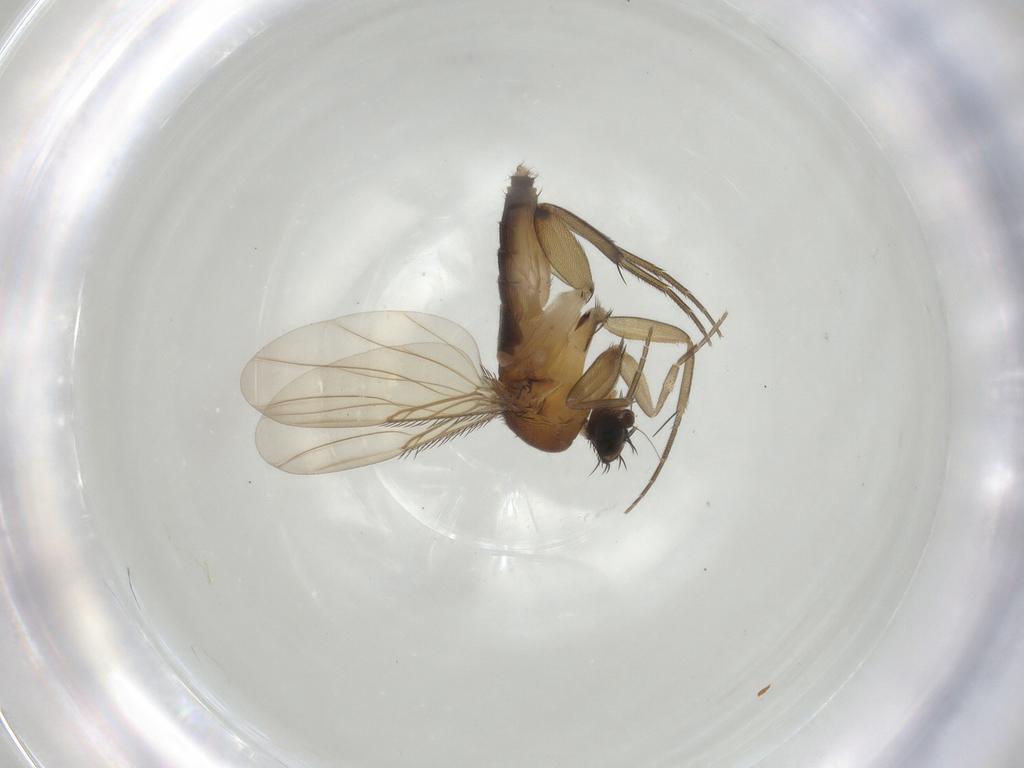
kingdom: Animalia
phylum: Arthropoda
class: Insecta
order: Diptera
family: Phoridae
